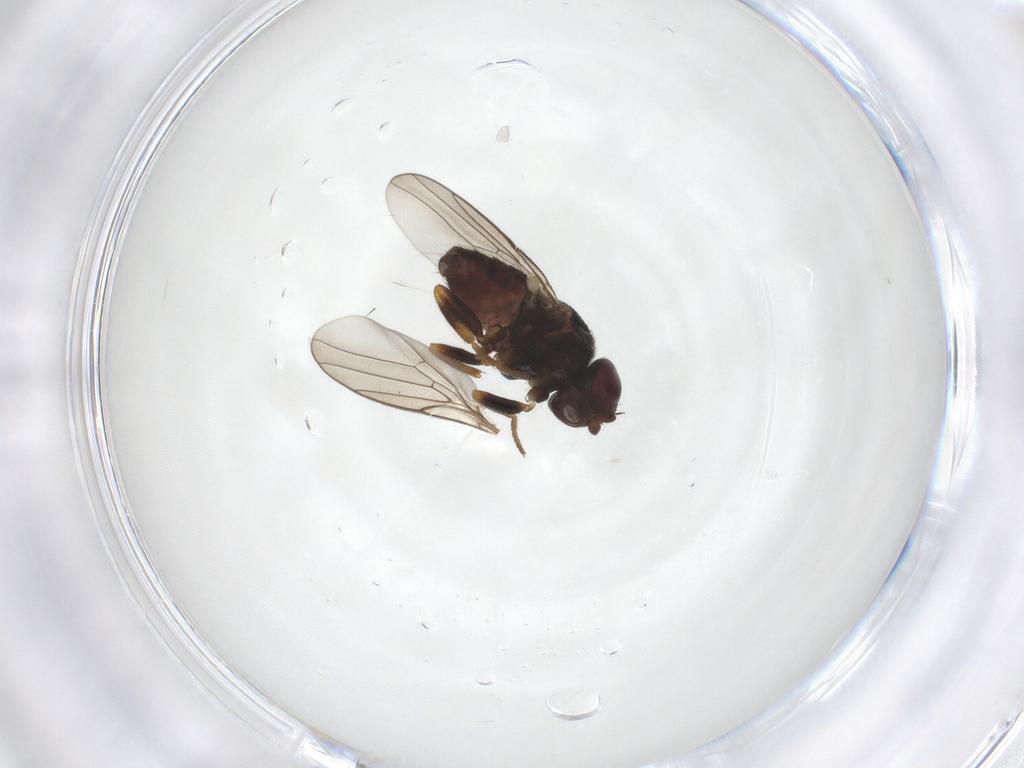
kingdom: Animalia
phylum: Arthropoda
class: Insecta
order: Diptera
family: Chloropidae
